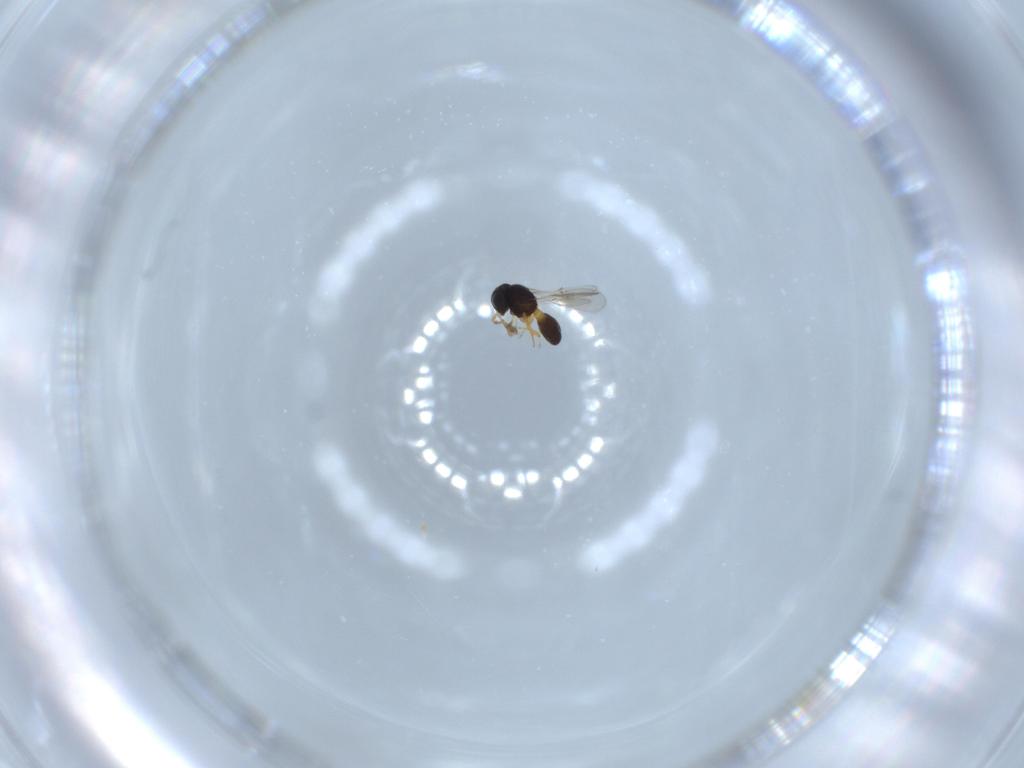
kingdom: Animalia
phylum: Arthropoda
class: Insecta
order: Hymenoptera
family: Scelionidae
